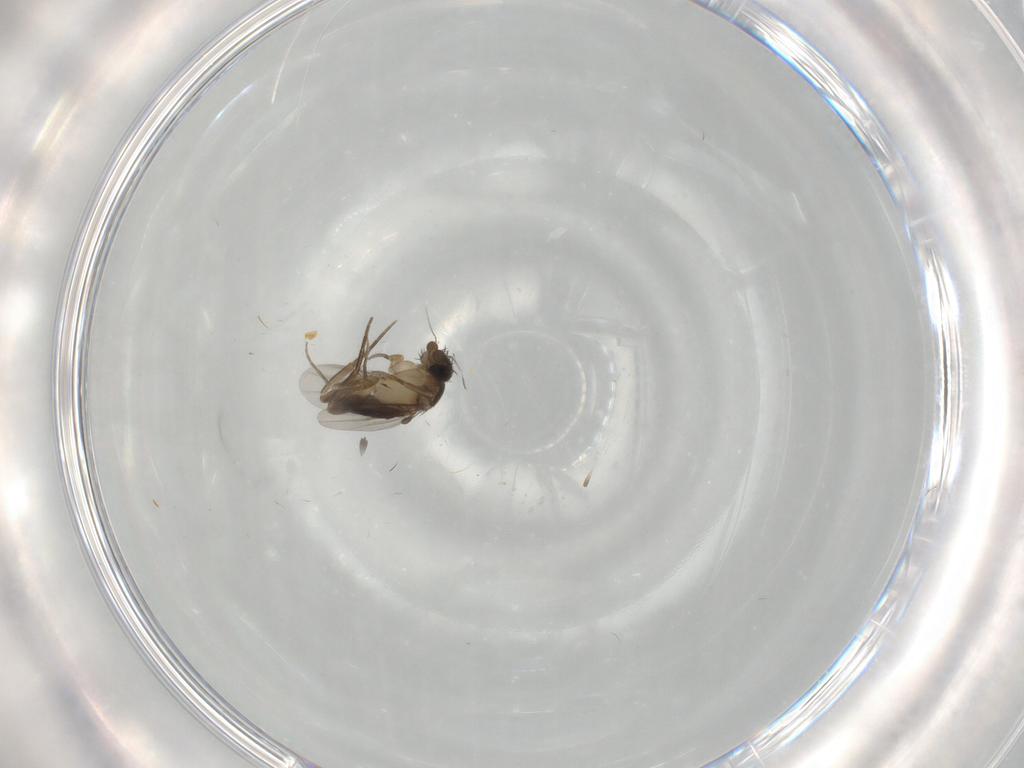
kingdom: Animalia
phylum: Arthropoda
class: Insecta
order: Diptera
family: Phoridae
